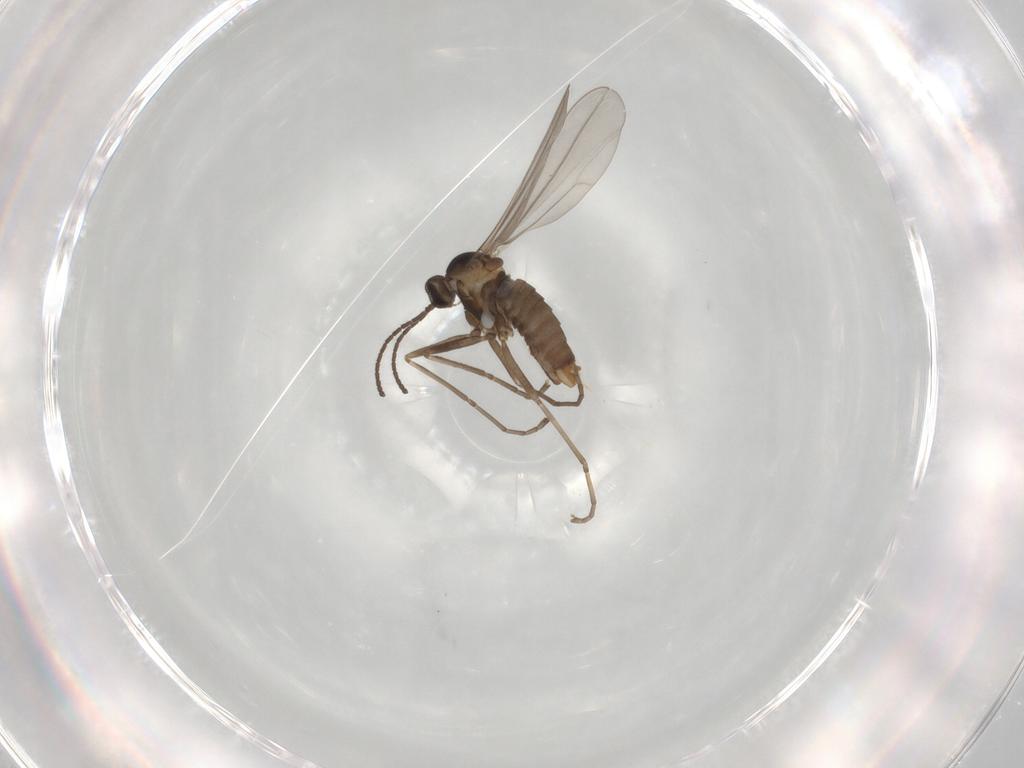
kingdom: Animalia
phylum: Arthropoda
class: Insecta
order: Diptera
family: Cecidomyiidae
